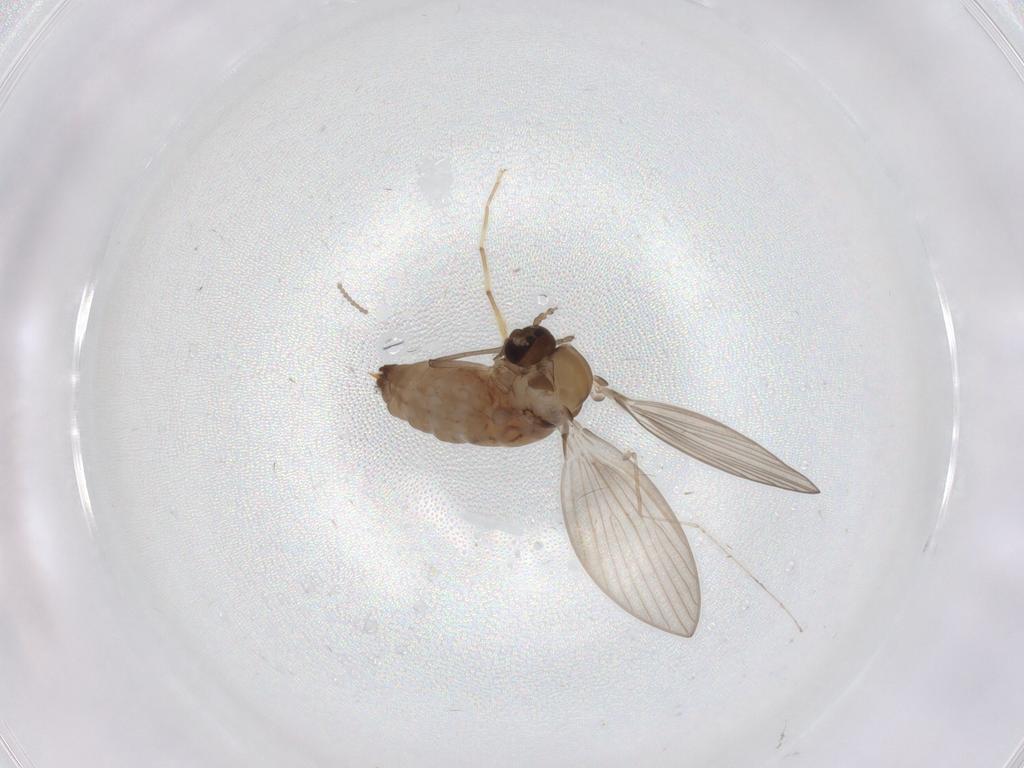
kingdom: Animalia
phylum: Arthropoda
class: Insecta
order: Diptera
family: Psychodidae
